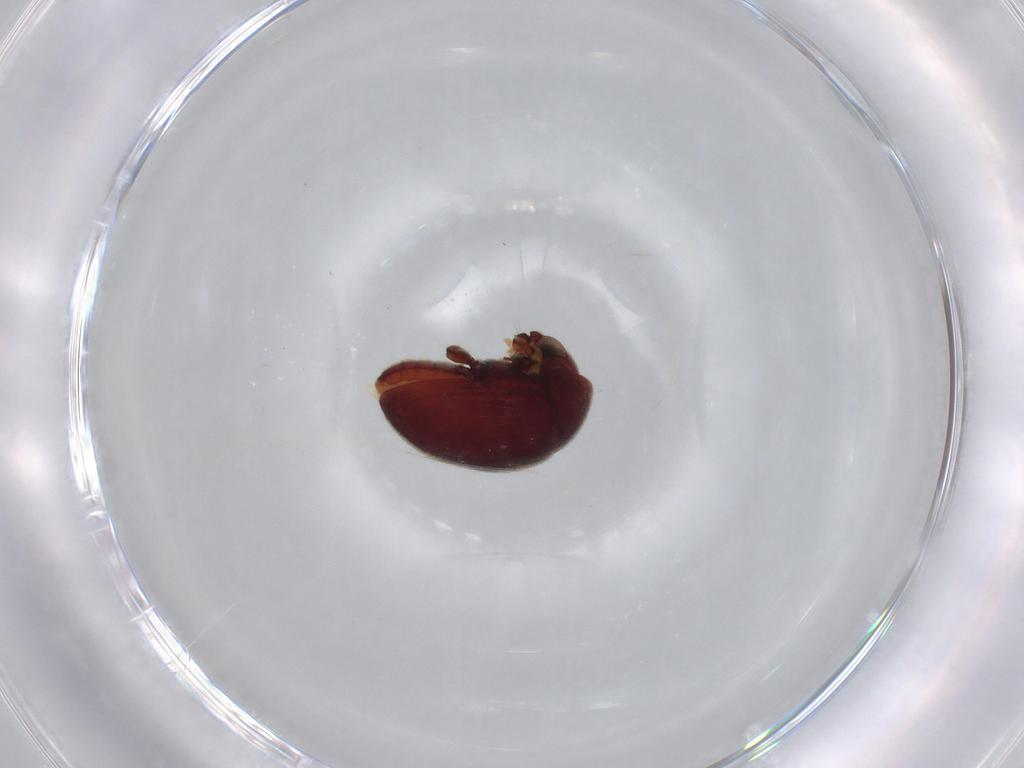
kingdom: Animalia
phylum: Arthropoda
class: Insecta
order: Coleoptera
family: Ptinidae
